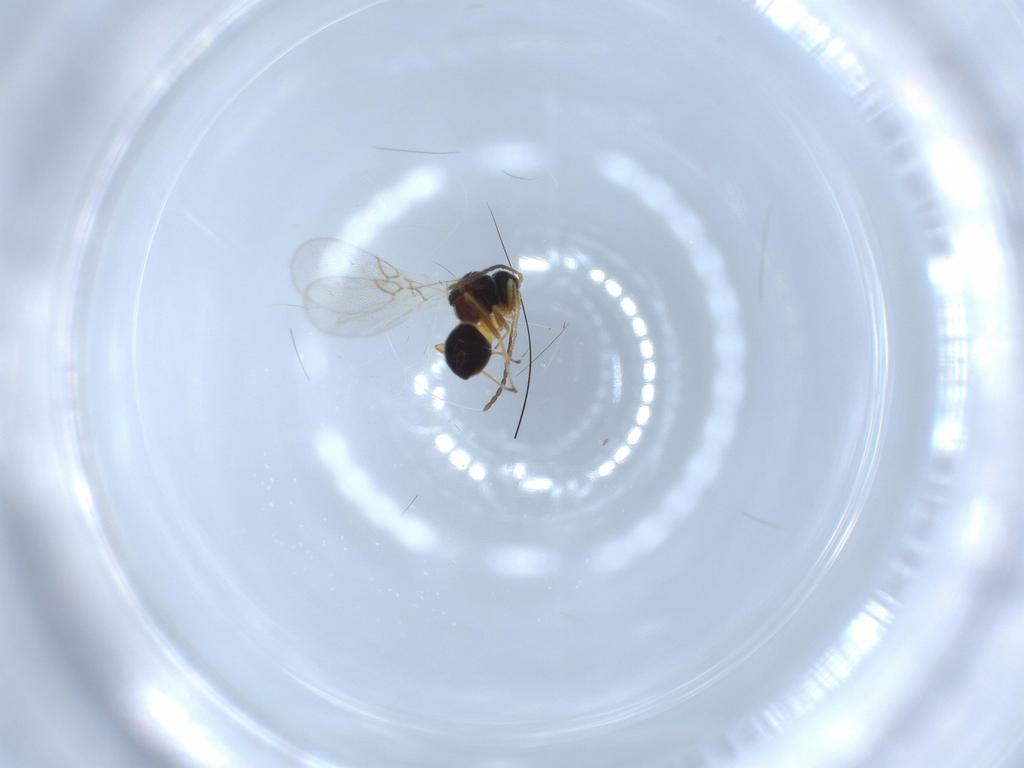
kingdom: Animalia
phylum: Arthropoda
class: Insecta
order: Hymenoptera
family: Figitidae
